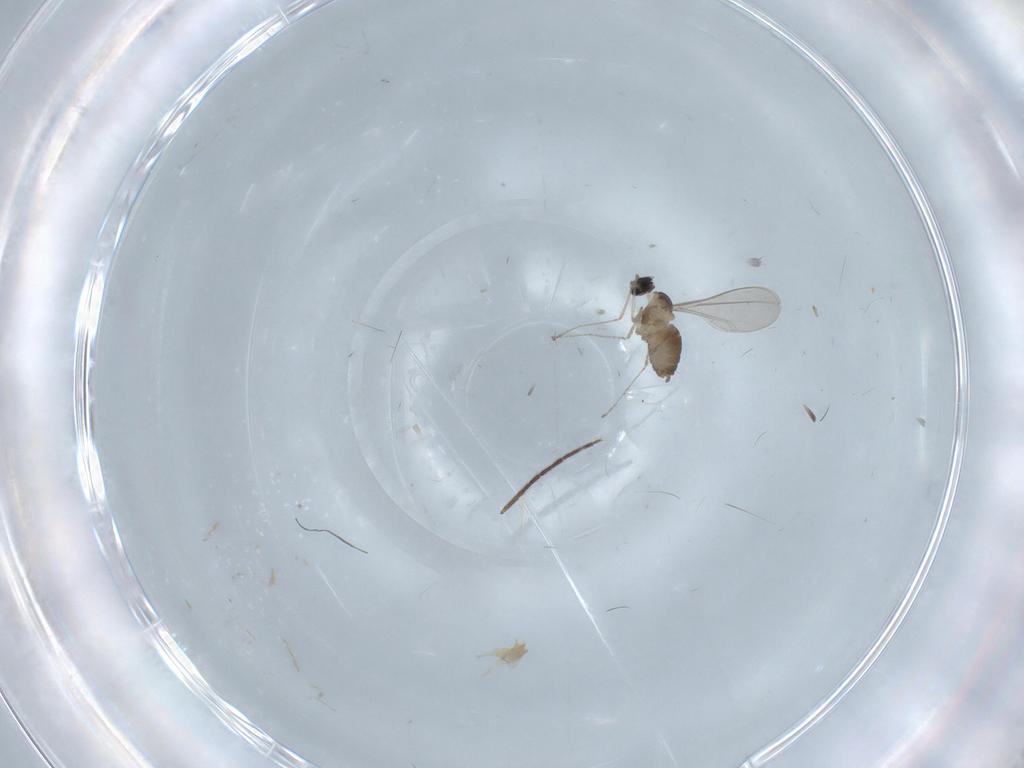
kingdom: Animalia
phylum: Arthropoda
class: Insecta
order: Diptera
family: Cecidomyiidae
